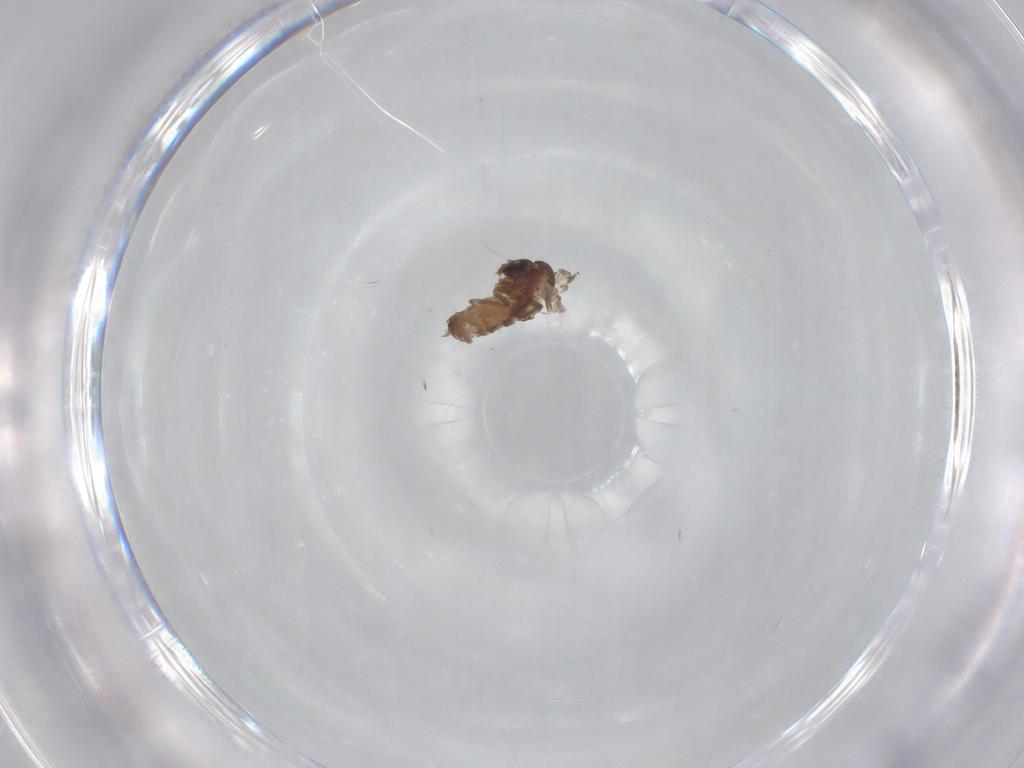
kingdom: Animalia
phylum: Arthropoda
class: Insecta
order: Diptera
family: Psychodidae
